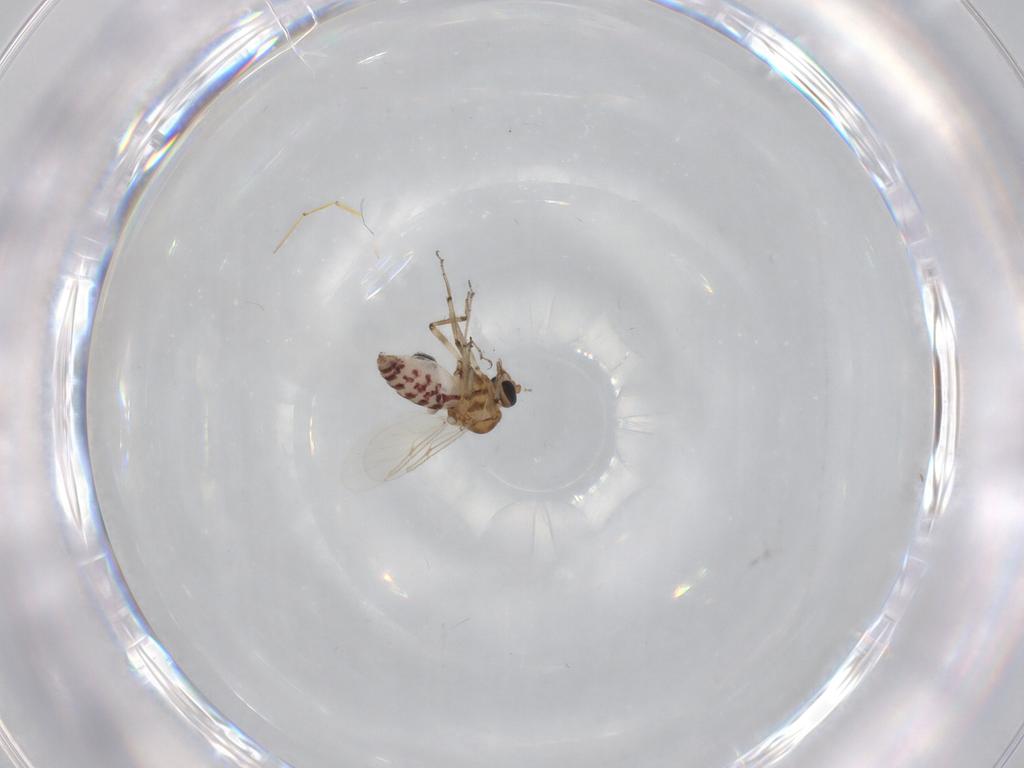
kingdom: Animalia
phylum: Arthropoda
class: Insecta
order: Diptera
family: Ceratopogonidae
